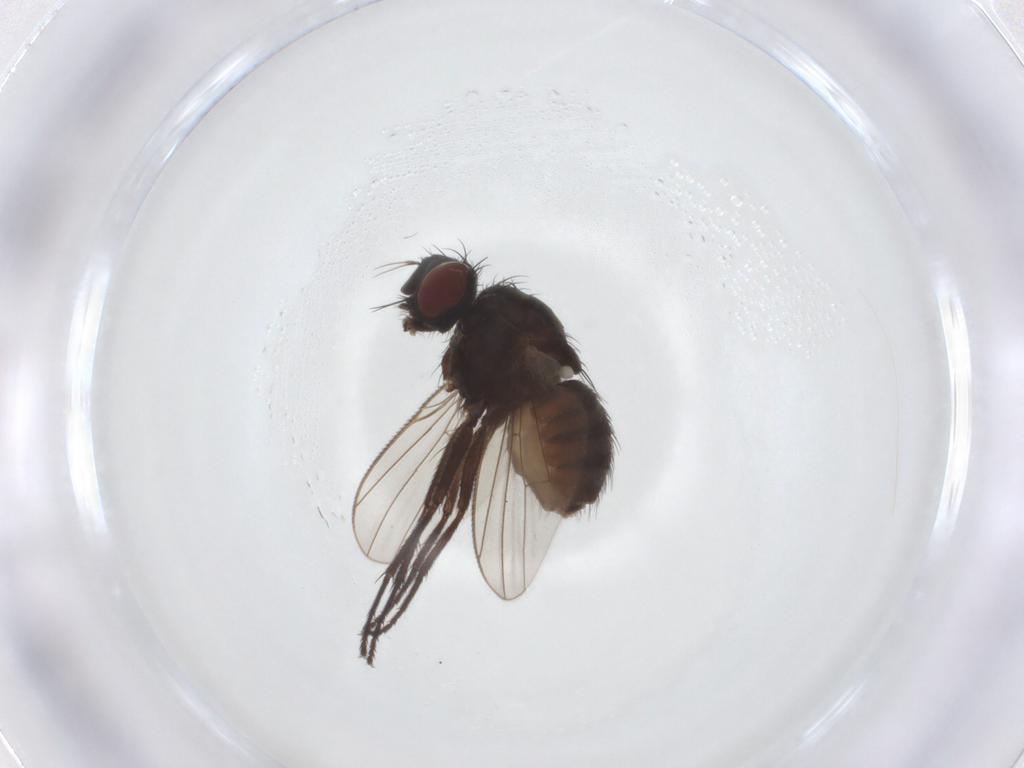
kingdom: Animalia
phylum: Arthropoda
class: Insecta
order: Diptera
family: Muscidae
